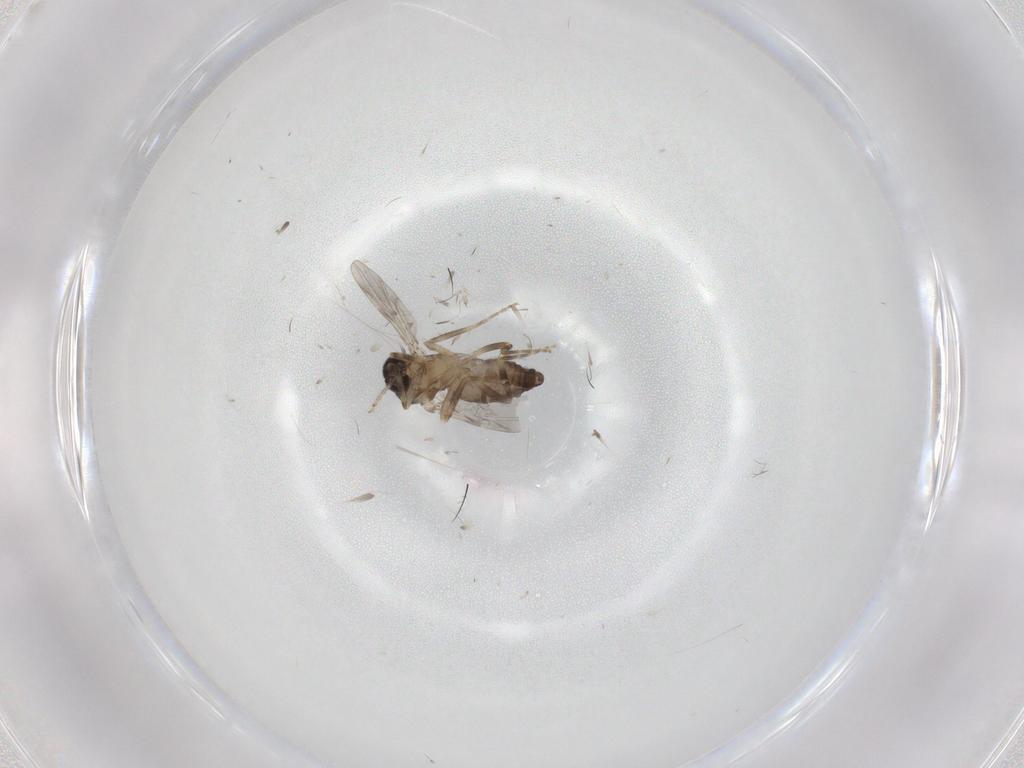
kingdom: Animalia
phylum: Arthropoda
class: Insecta
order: Diptera
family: Ceratopogonidae
